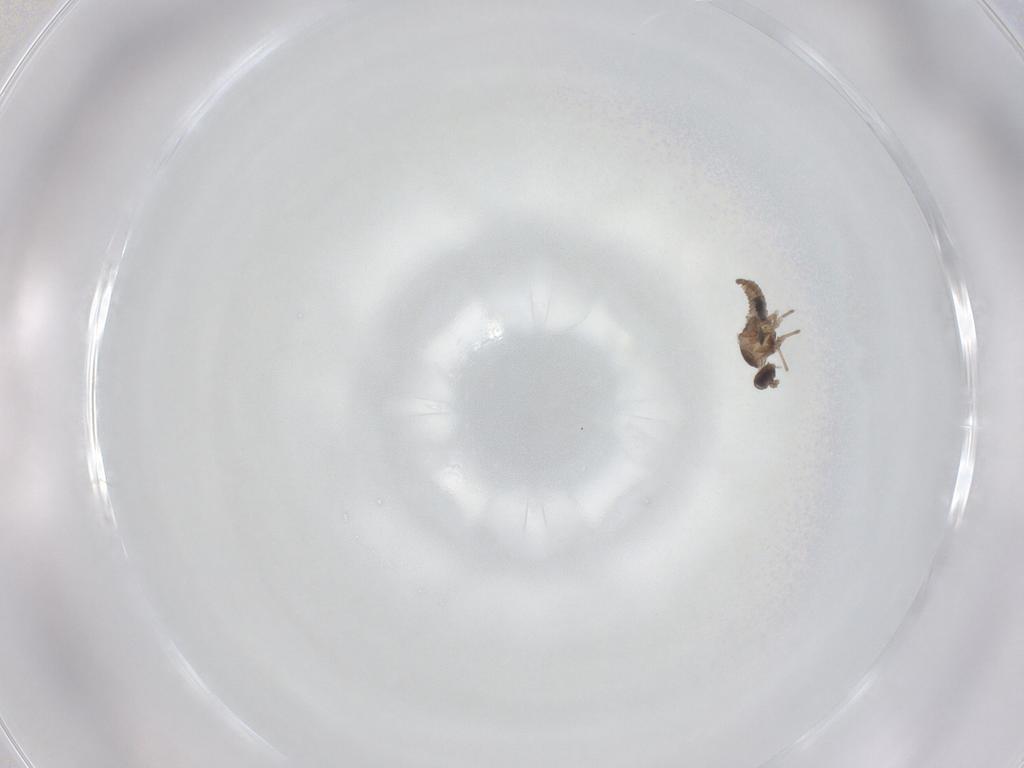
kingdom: Animalia
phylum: Arthropoda
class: Insecta
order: Diptera
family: Cecidomyiidae
